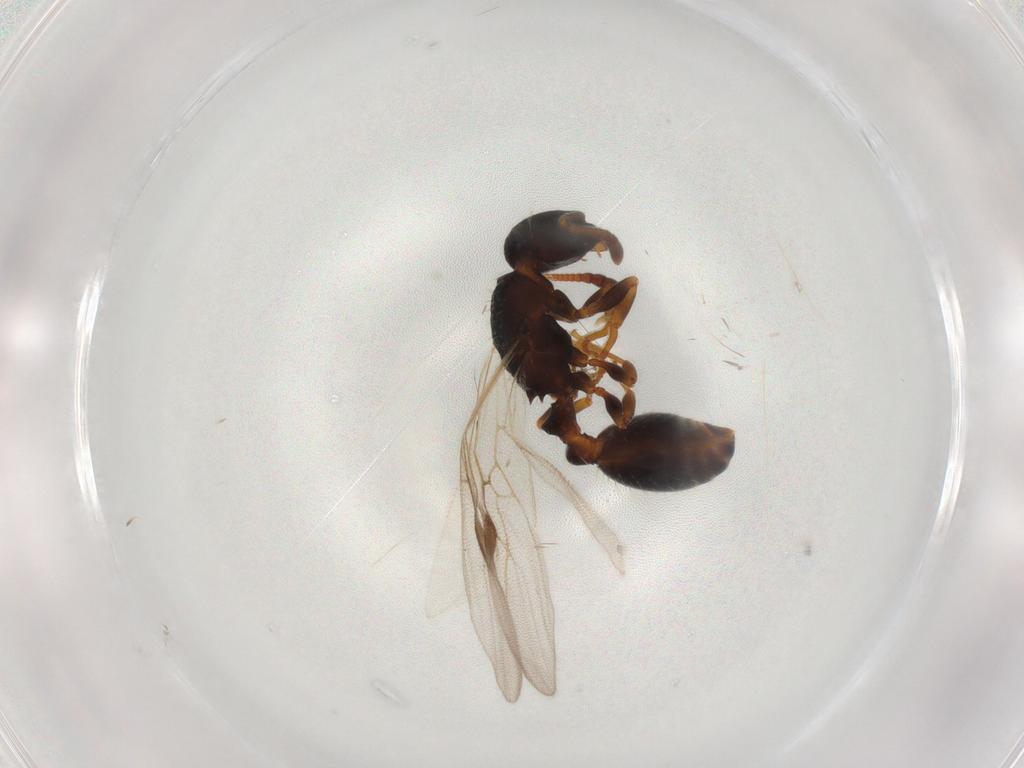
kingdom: Animalia
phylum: Arthropoda
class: Insecta
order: Hymenoptera
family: Formicidae
